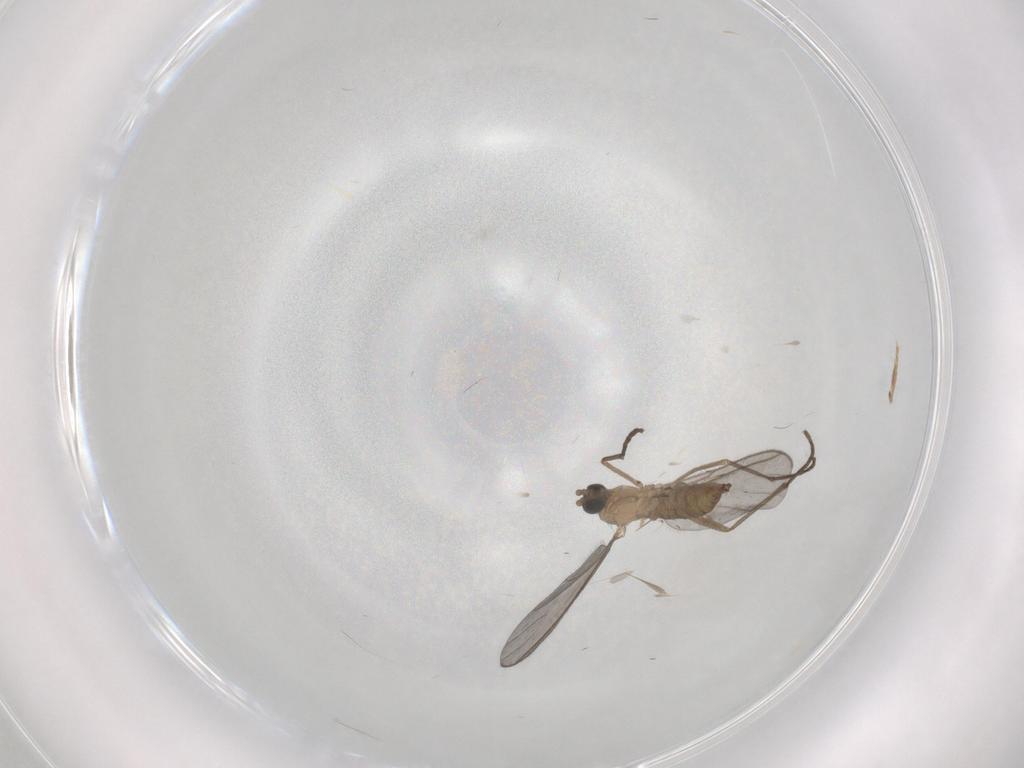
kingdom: Animalia
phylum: Arthropoda
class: Insecta
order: Diptera
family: Sciaridae
